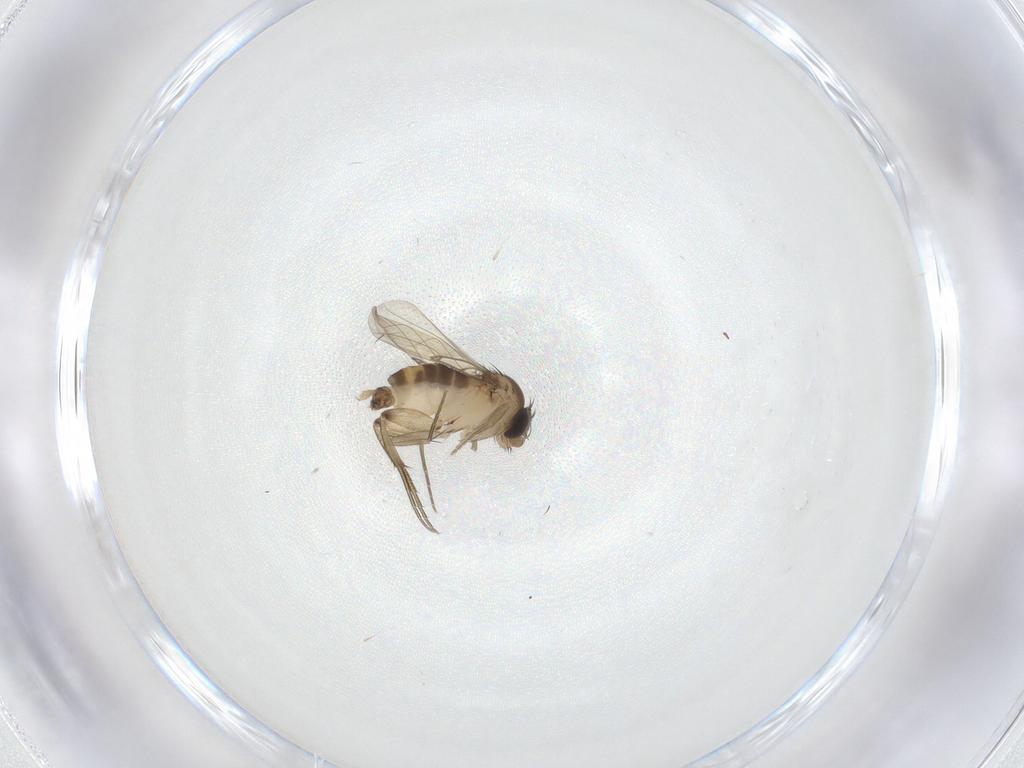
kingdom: Animalia
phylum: Arthropoda
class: Insecta
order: Diptera
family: Phoridae
